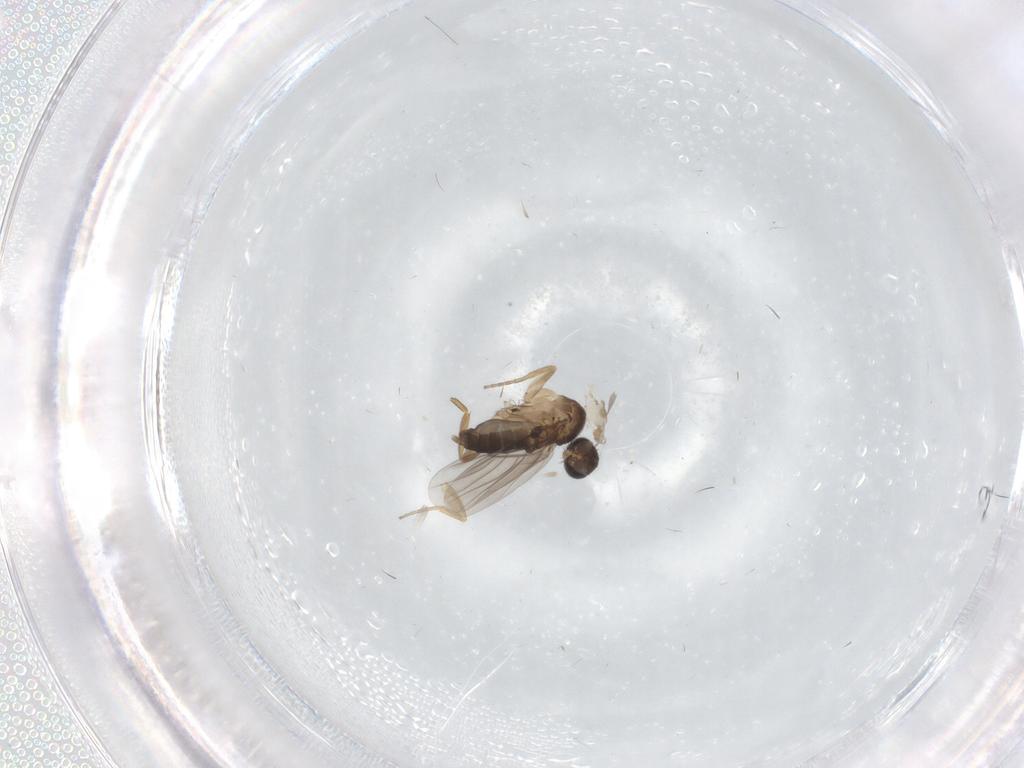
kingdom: Animalia
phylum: Arthropoda
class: Insecta
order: Diptera
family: Phoridae
